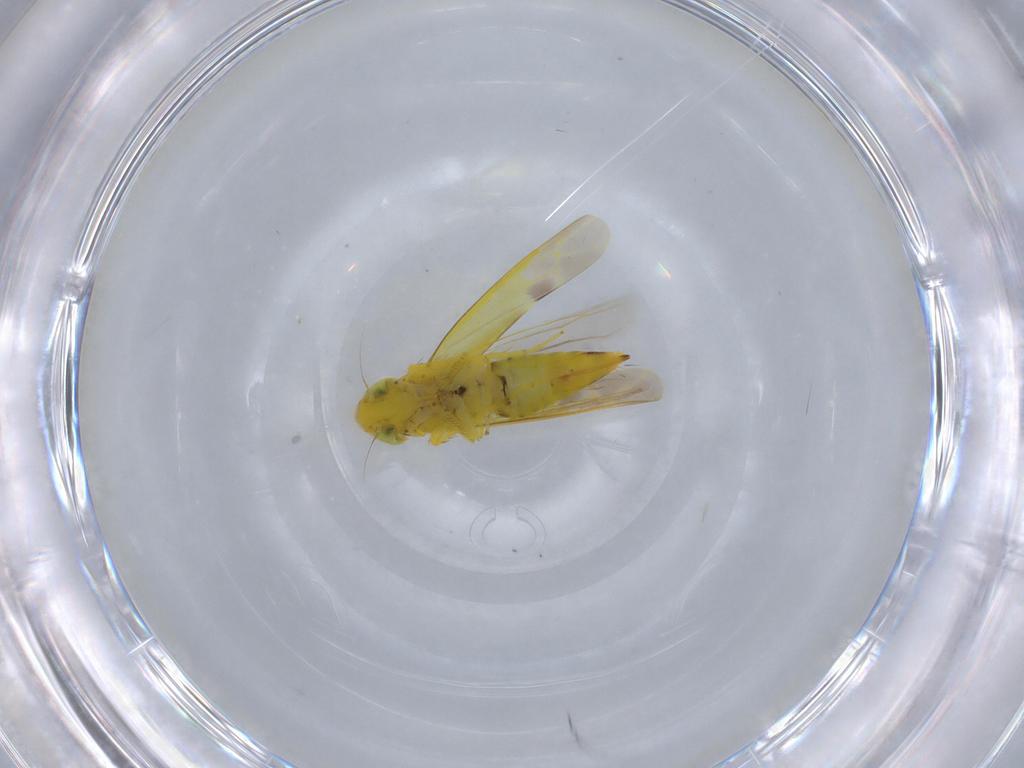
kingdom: Animalia
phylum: Arthropoda
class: Insecta
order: Hemiptera
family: Cicadellidae
